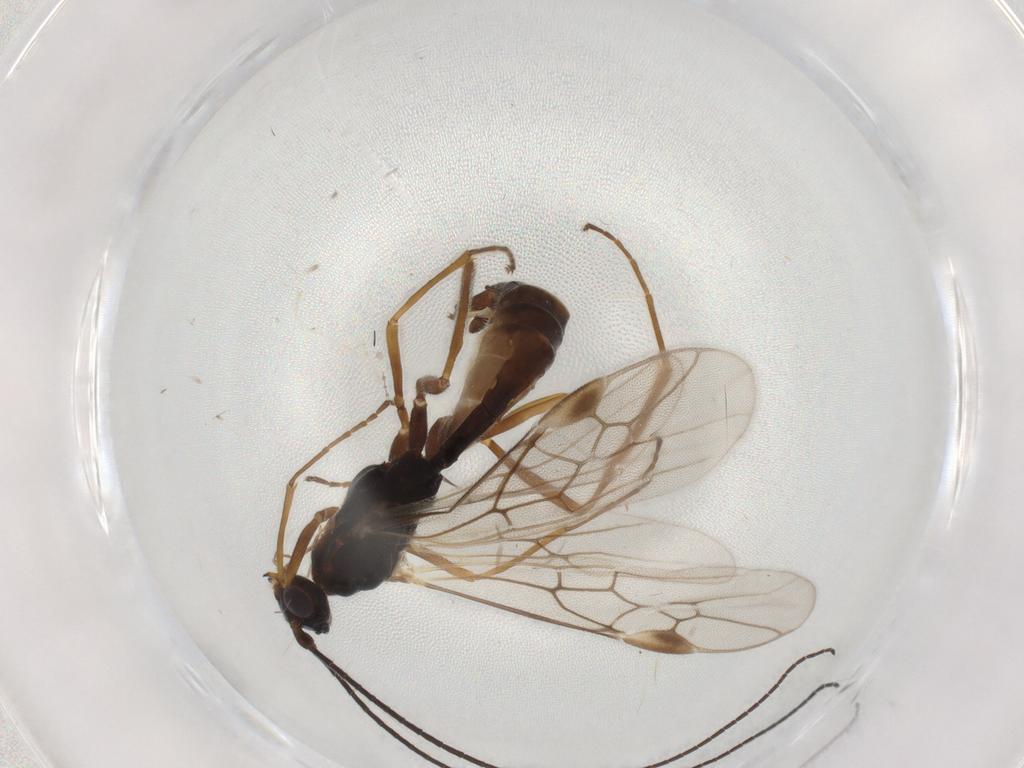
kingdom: Animalia
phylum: Arthropoda
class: Insecta
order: Hymenoptera
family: Braconidae
